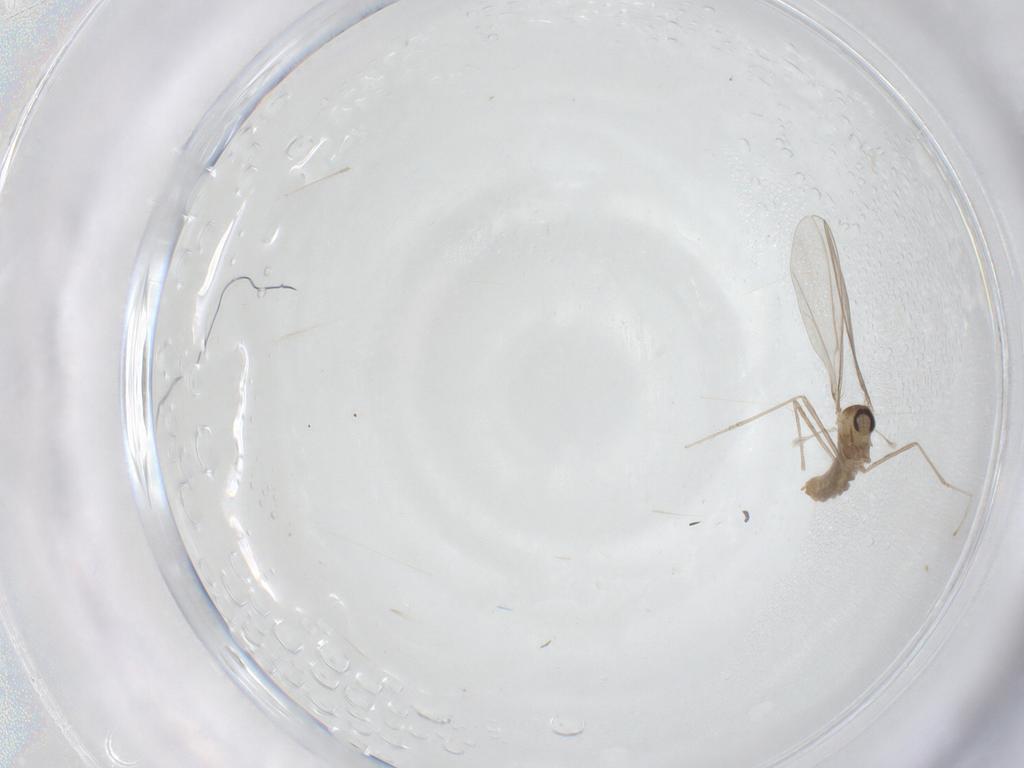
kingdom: Animalia
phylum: Arthropoda
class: Insecta
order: Diptera
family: Cecidomyiidae
